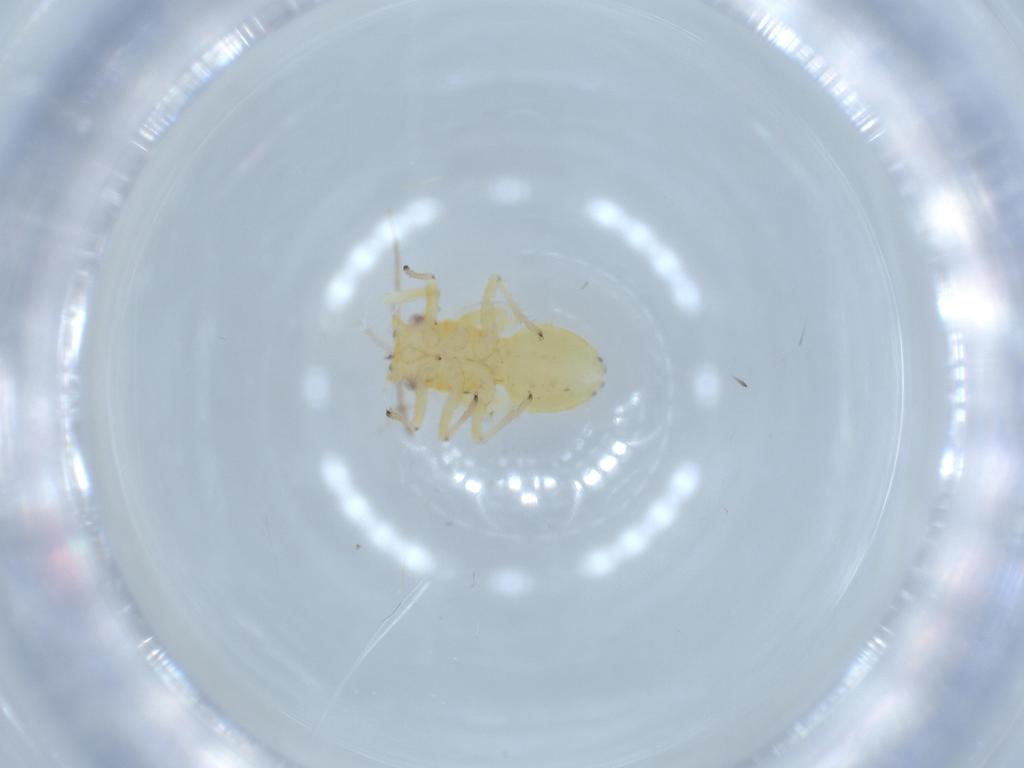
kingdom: Animalia
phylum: Arthropoda
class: Insecta
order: Hemiptera
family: Psyllidae
